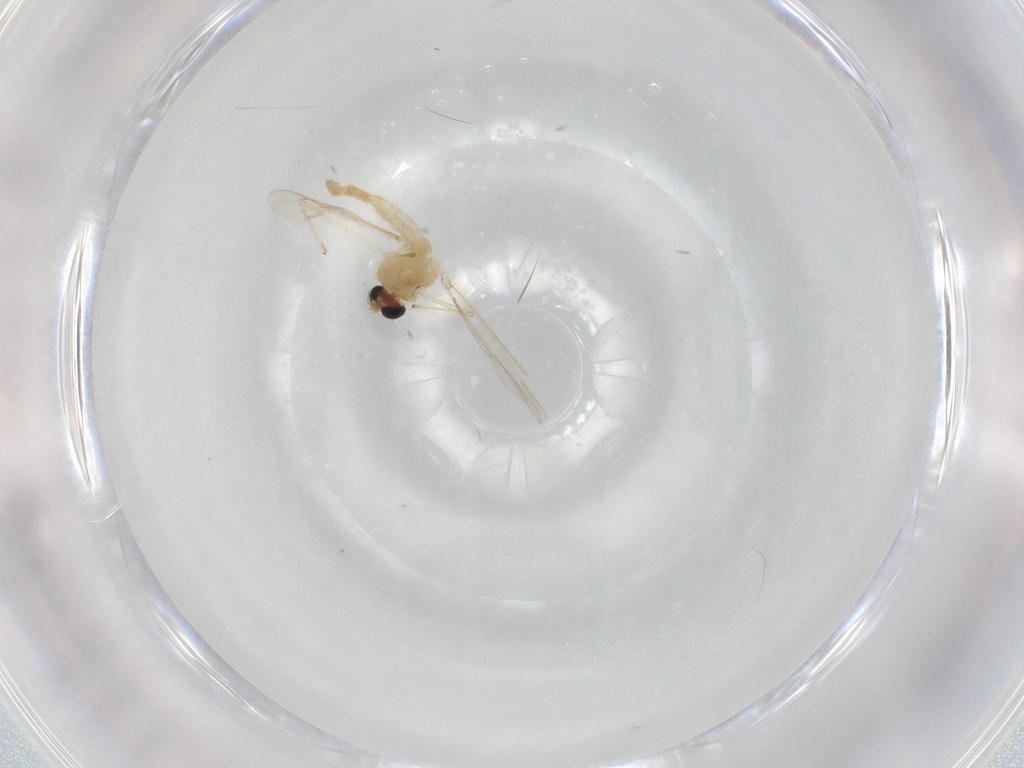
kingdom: Animalia
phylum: Arthropoda
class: Insecta
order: Diptera
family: Chironomidae
